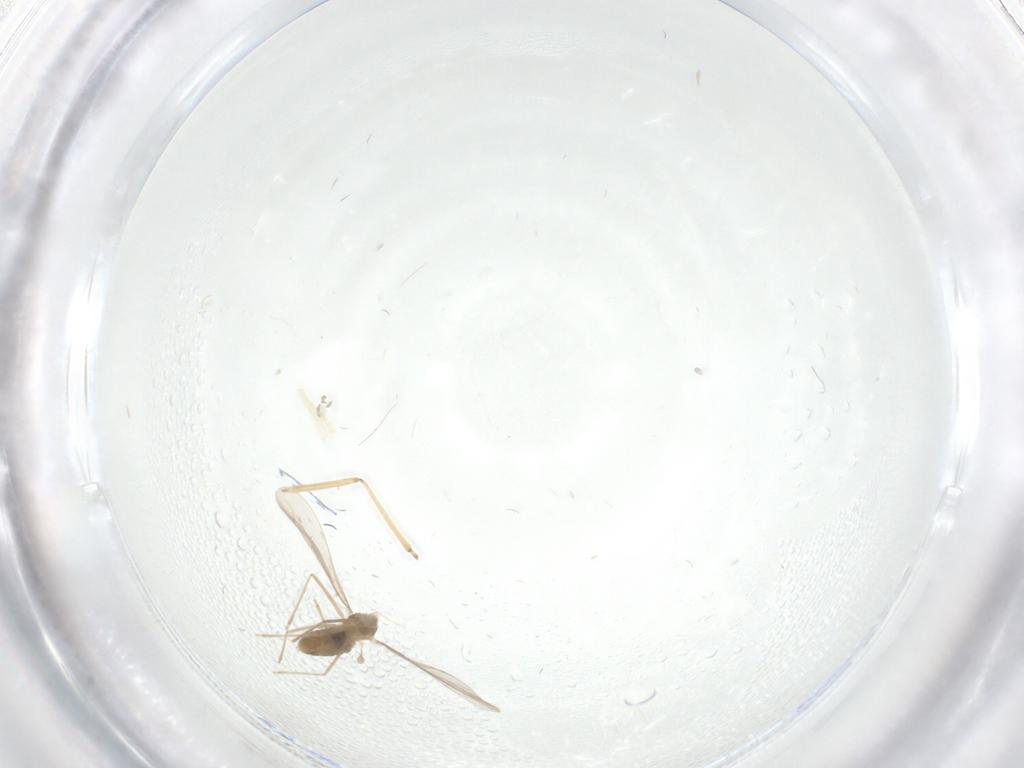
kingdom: Animalia
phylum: Arthropoda
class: Insecta
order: Diptera
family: Cecidomyiidae
